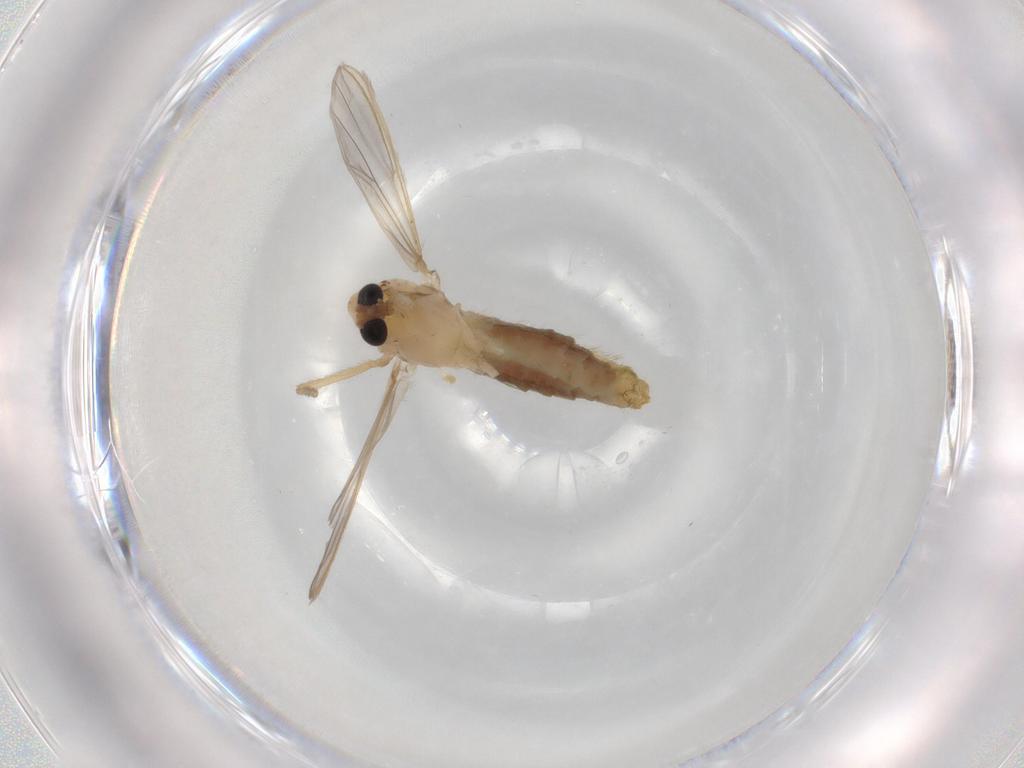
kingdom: Animalia
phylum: Arthropoda
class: Insecta
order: Diptera
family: Chironomidae
